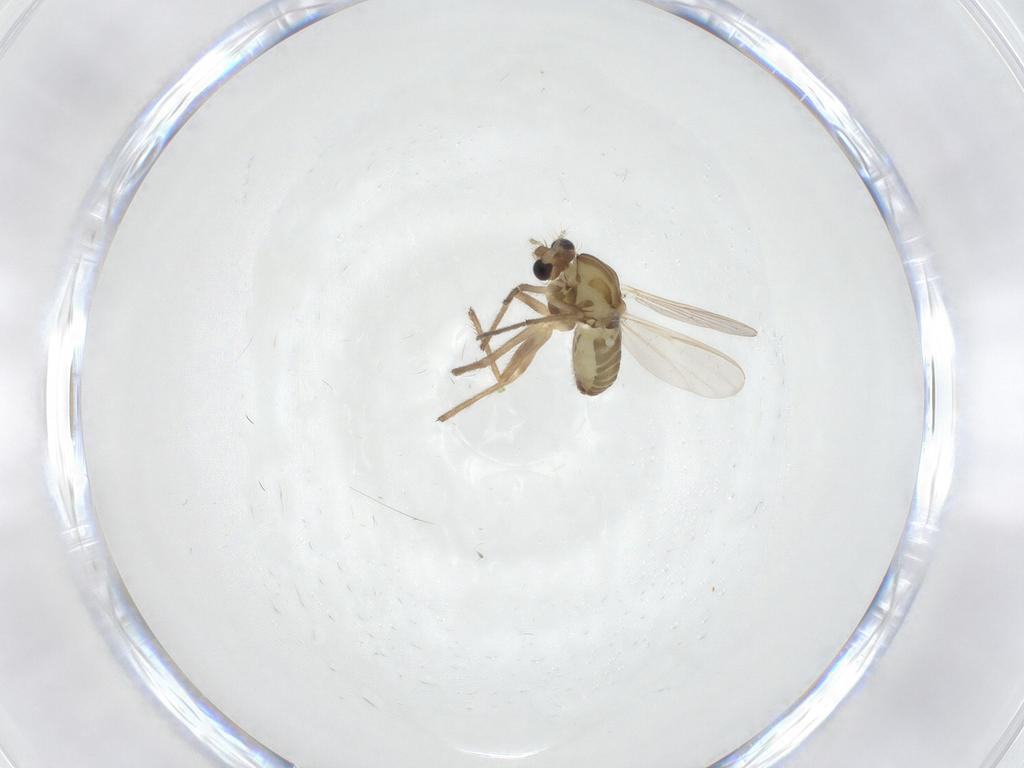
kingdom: Animalia
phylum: Arthropoda
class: Insecta
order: Diptera
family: Chironomidae
